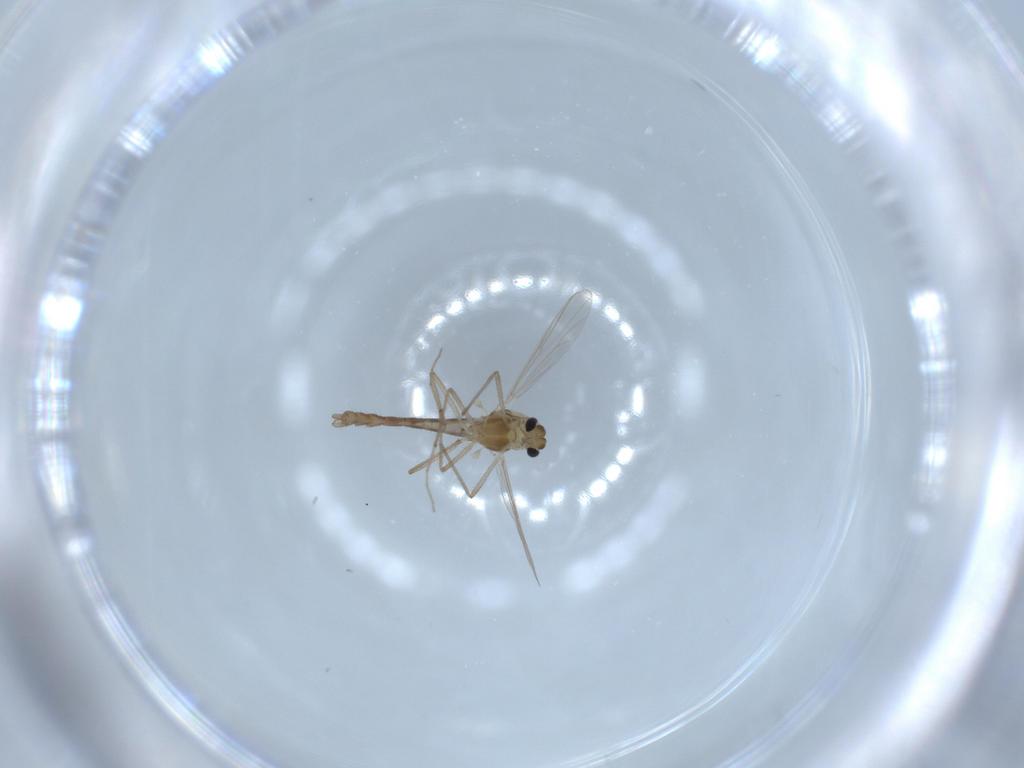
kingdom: Animalia
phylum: Arthropoda
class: Insecta
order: Diptera
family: Chironomidae
